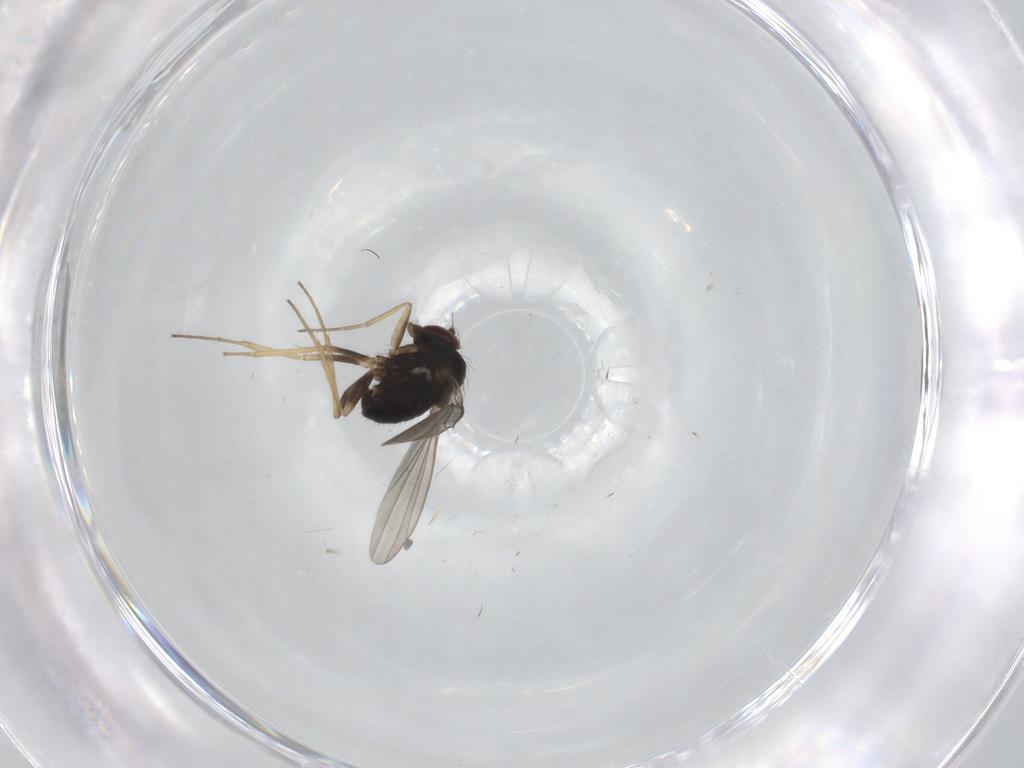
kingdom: Animalia
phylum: Arthropoda
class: Insecta
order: Diptera
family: Dolichopodidae
